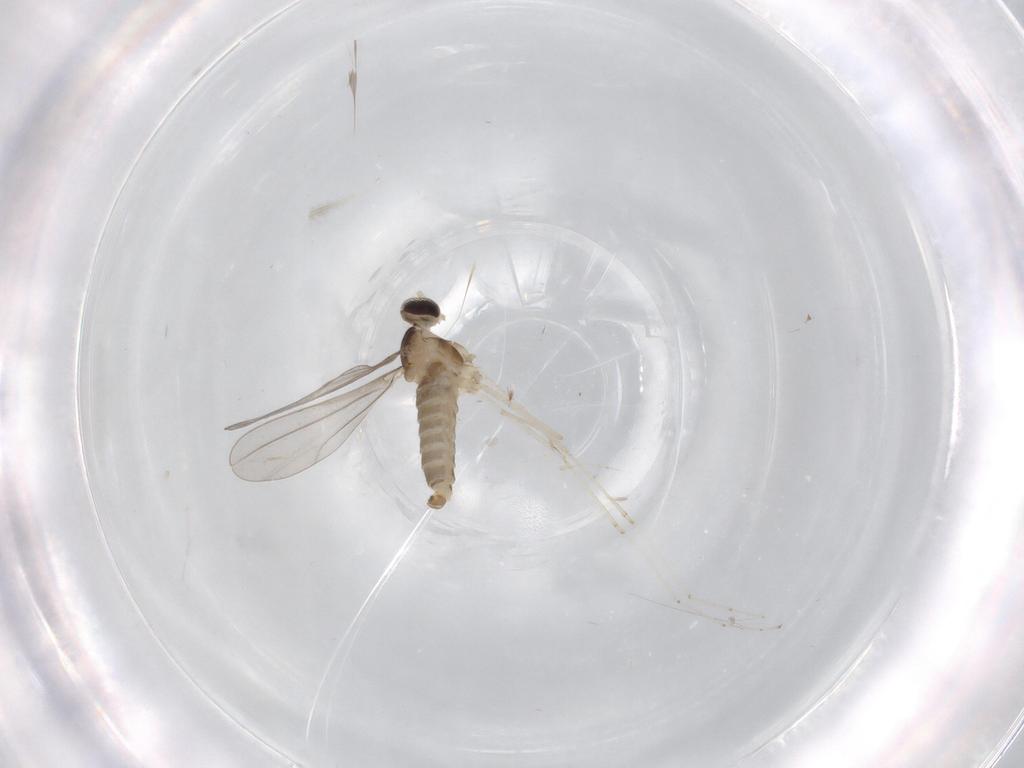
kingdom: Animalia
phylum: Arthropoda
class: Insecta
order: Diptera
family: Cecidomyiidae
